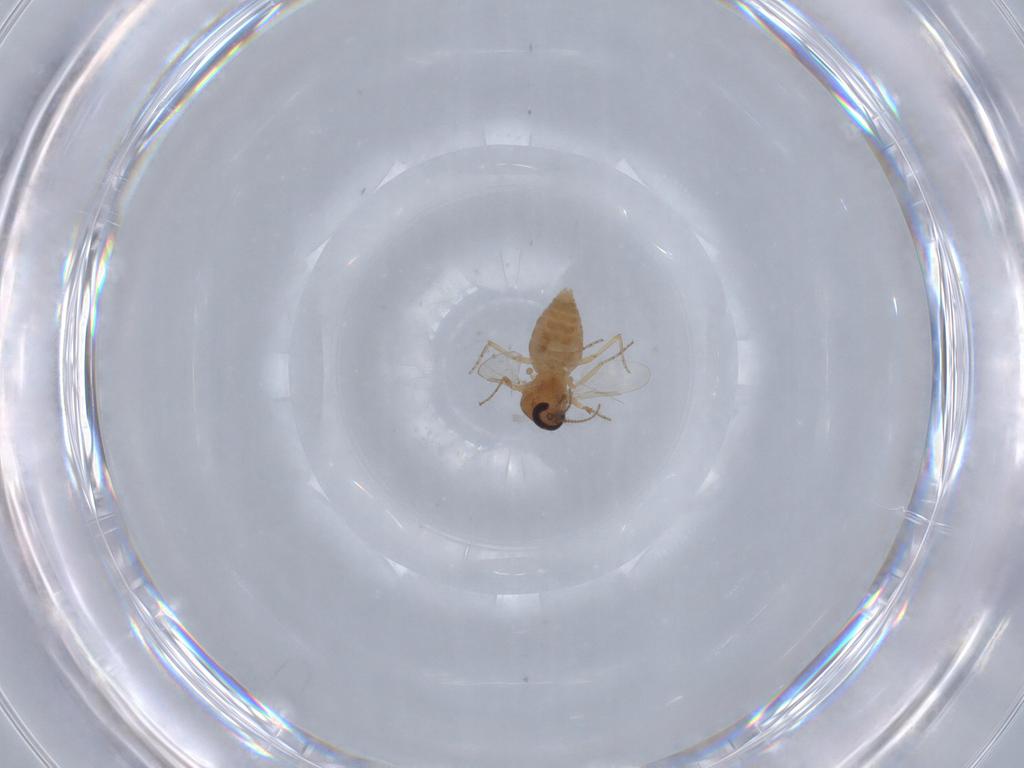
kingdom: Animalia
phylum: Arthropoda
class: Insecta
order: Diptera
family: Ceratopogonidae
